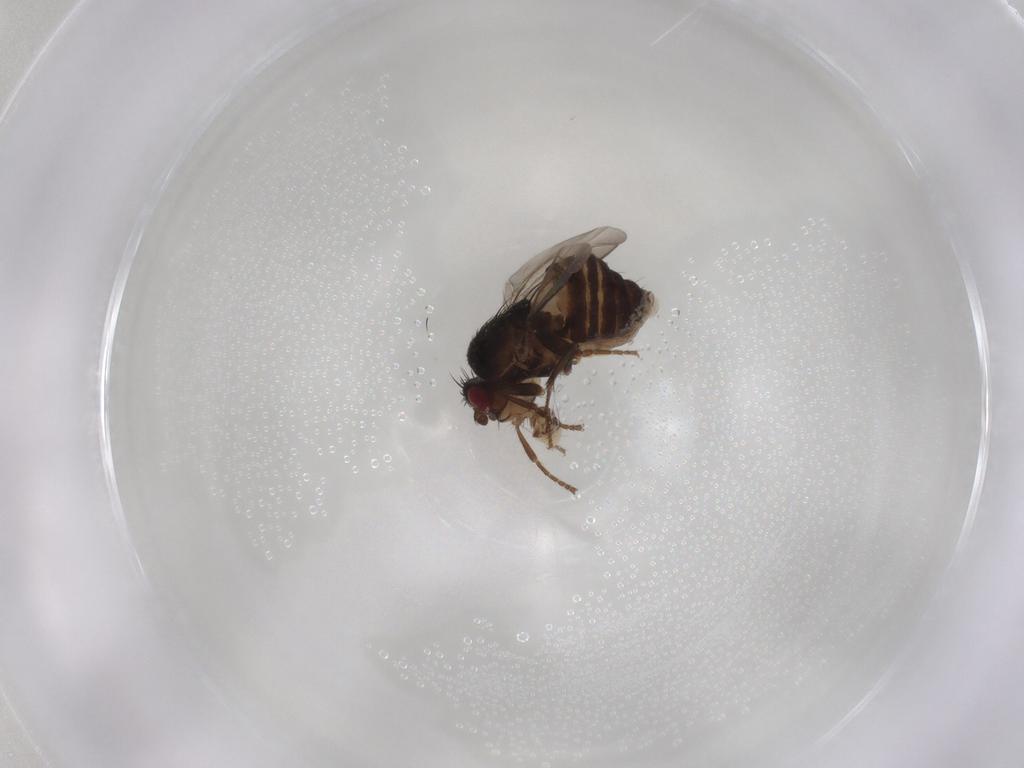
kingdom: Animalia
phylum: Arthropoda
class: Insecta
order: Diptera
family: Sphaeroceridae
